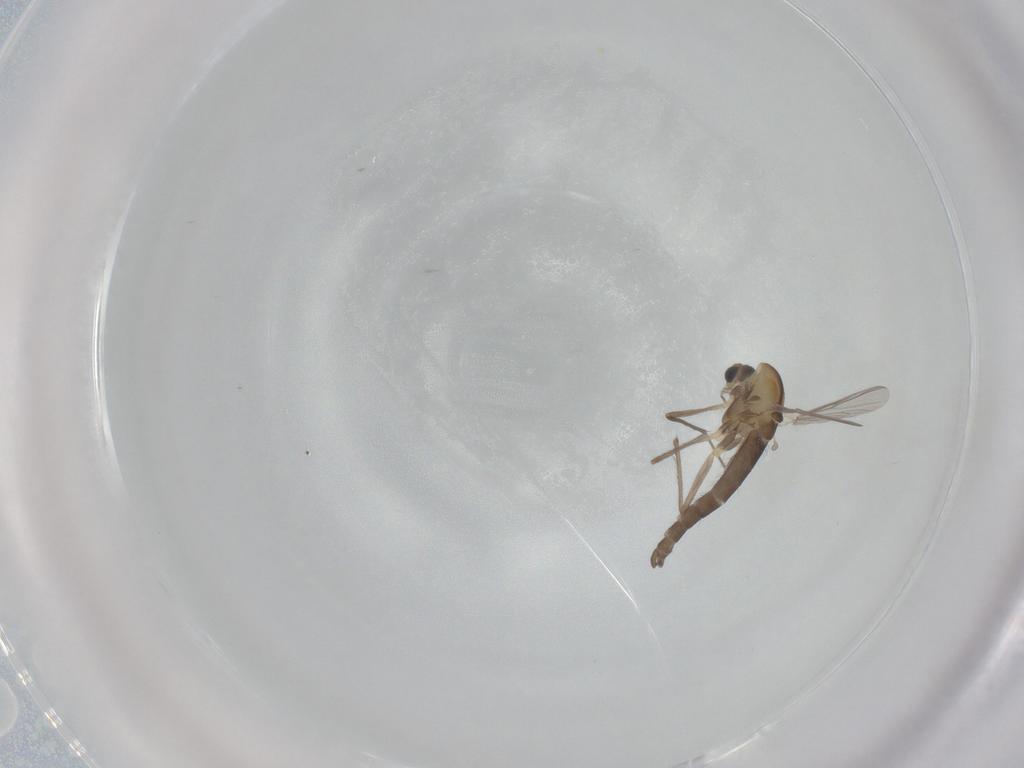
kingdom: Animalia
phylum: Arthropoda
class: Insecta
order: Diptera
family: Chironomidae
